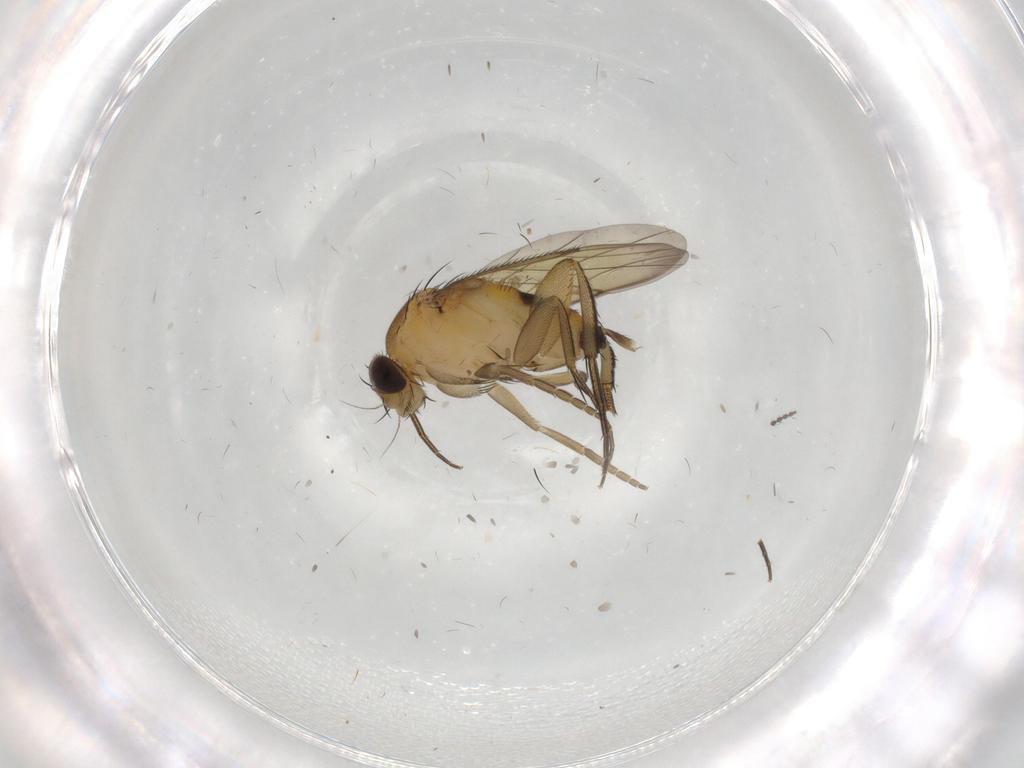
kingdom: Animalia
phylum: Arthropoda
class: Insecta
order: Diptera
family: Phoridae
